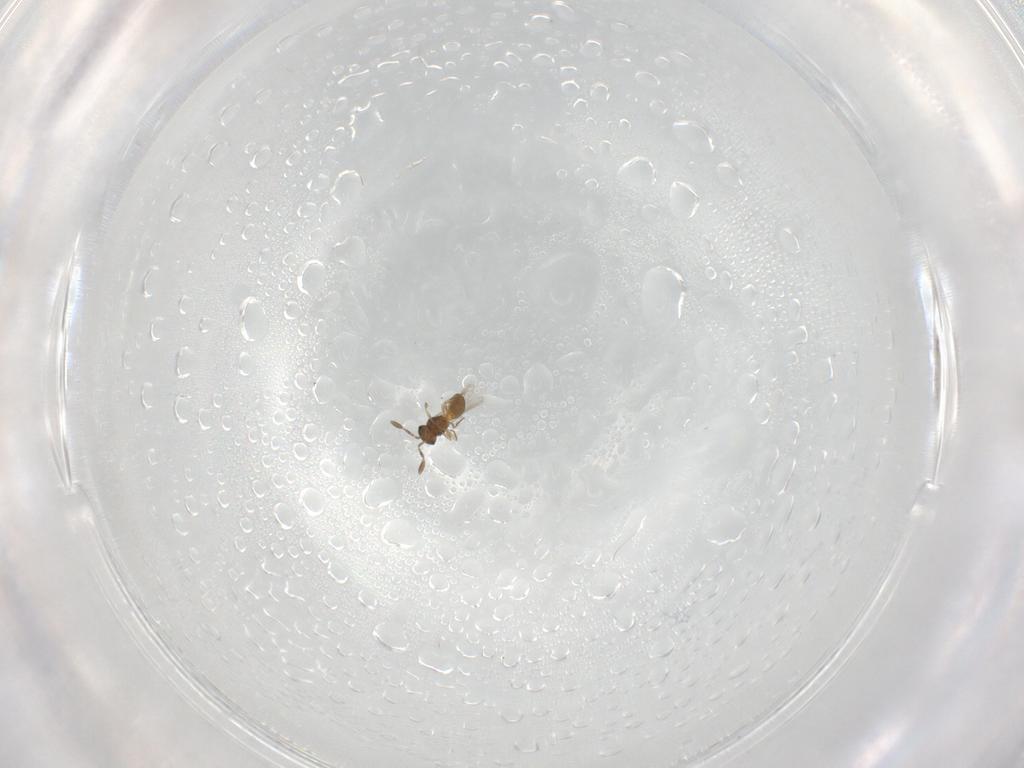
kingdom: Animalia
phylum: Arthropoda
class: Insecta
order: Hymenoptera
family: Scelionidae
